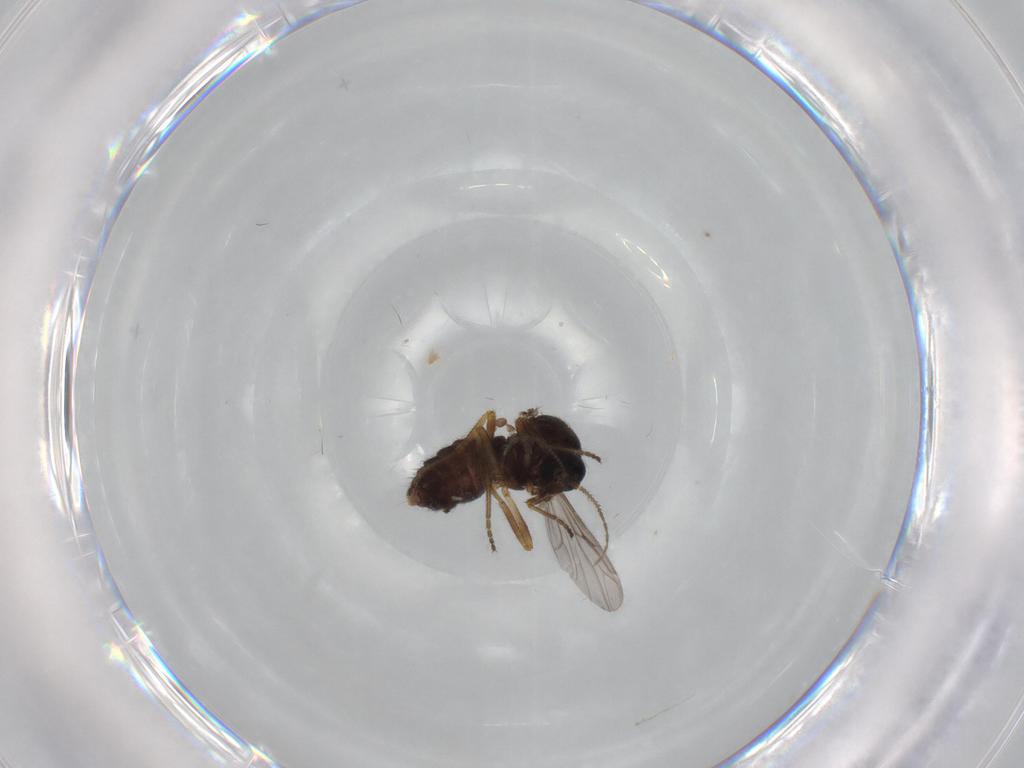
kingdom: Animalia
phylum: Arthropoda
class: Insecta
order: Diptera
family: Ceratopogonidae
